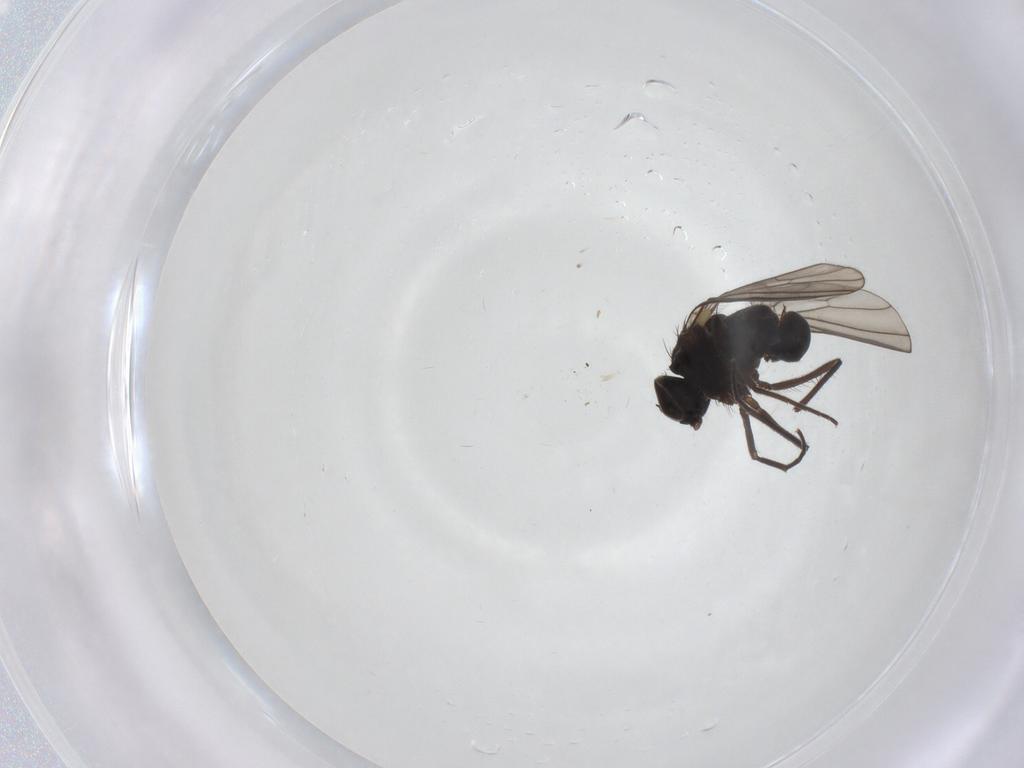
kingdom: Animalia
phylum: Arthropoda
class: Insecta
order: Diptera
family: Dolichopodidae
